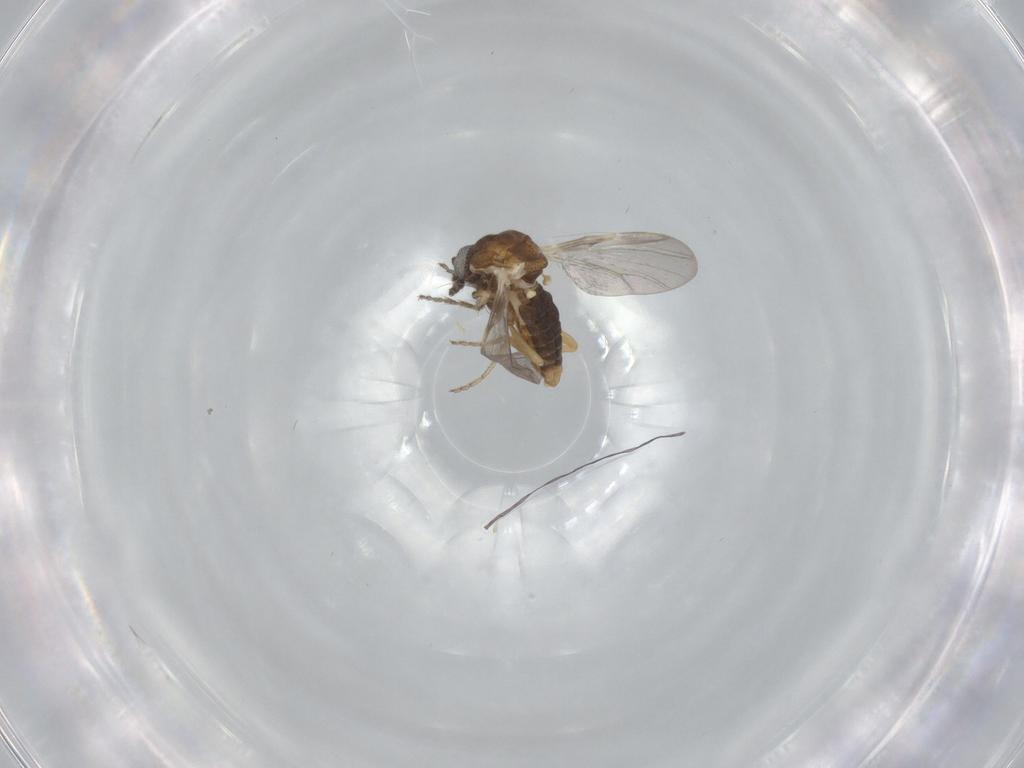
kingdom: Animalia
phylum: Arthropoda
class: Insecta
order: Diptera
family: Ceratopogonidae
